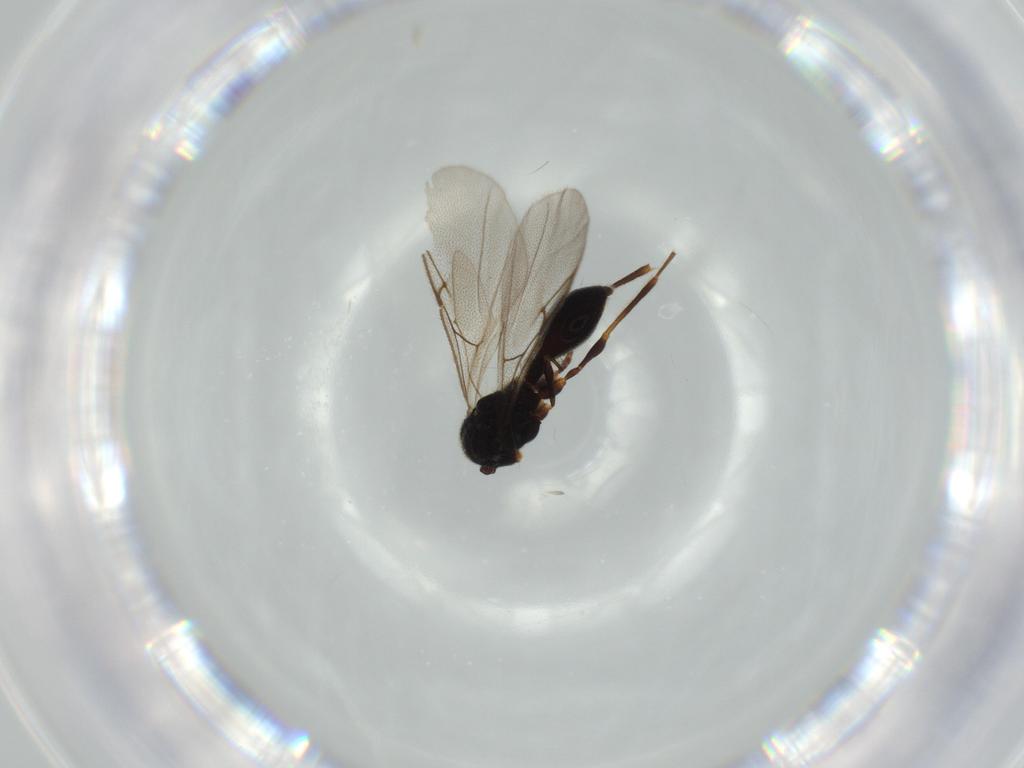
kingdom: Animalia
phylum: Arthropoda
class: Insecta
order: Hymenoptera
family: Diapriidae
